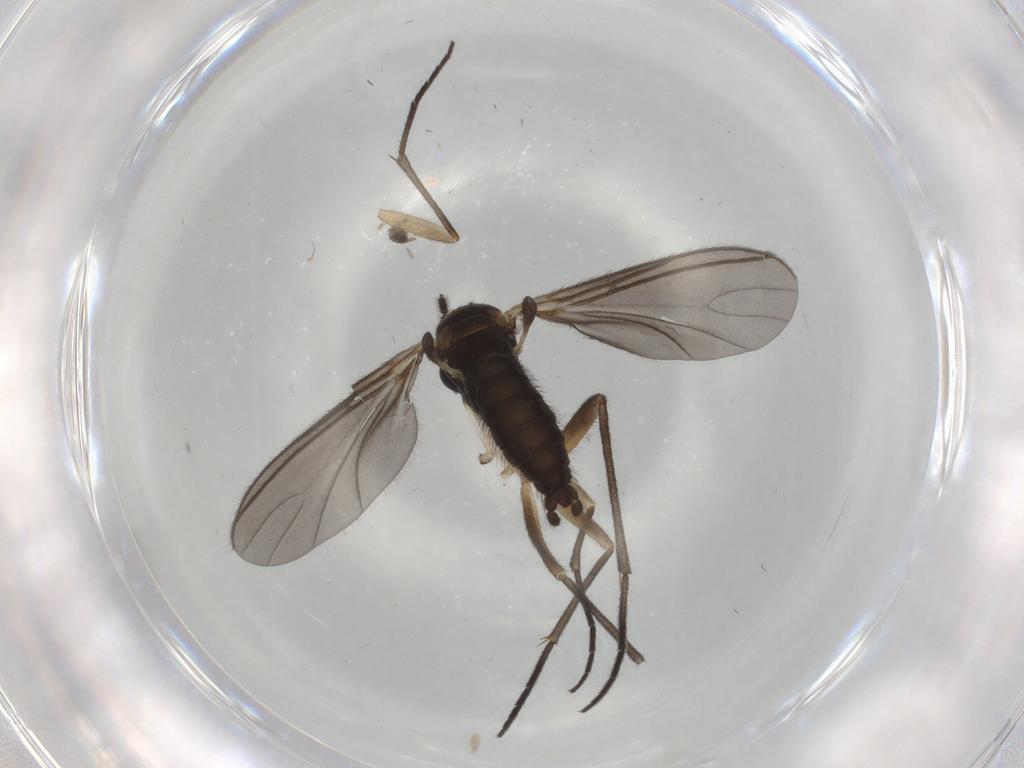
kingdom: Animalia
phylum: Arthropoda
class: Insecta
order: Diptera
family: Sciaridae
